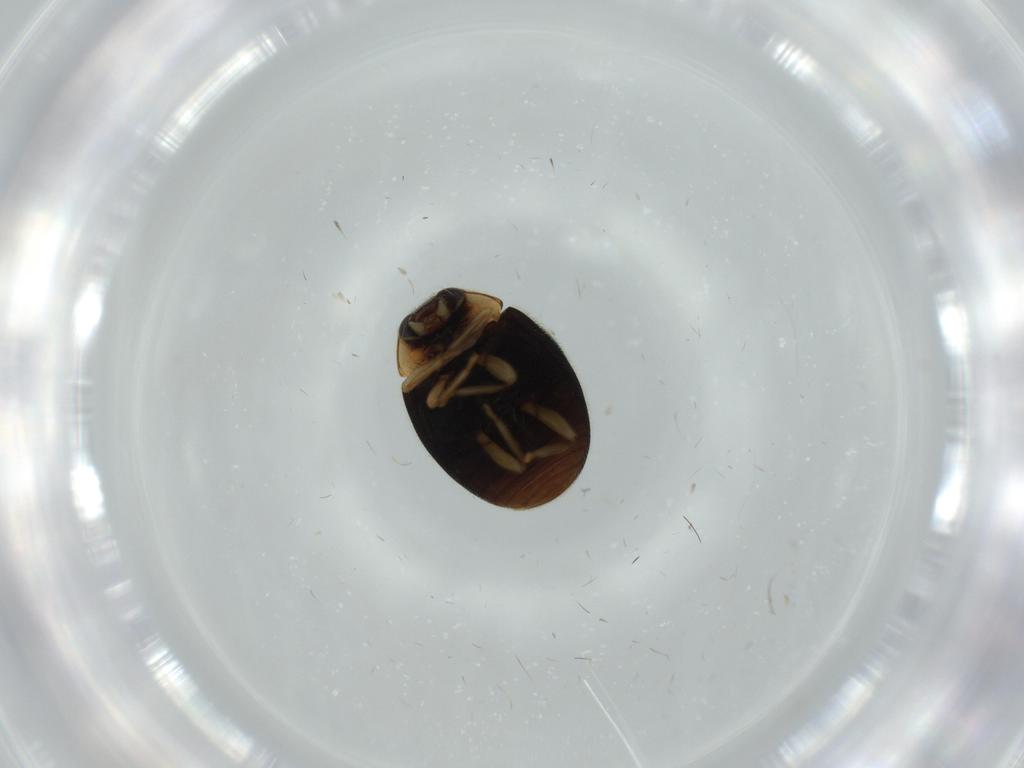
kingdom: Animalia
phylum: Arthropoda
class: Insecta
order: Coleoptera
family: Coccinellidae
